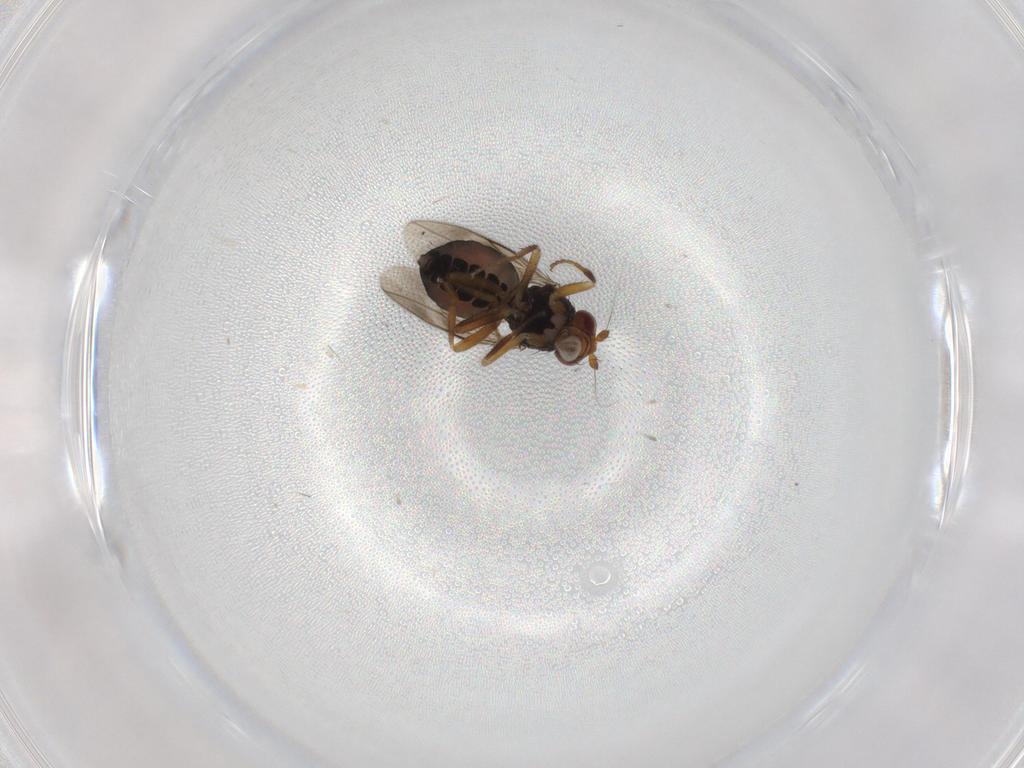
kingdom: Animalia
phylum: Arthropoda
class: Insecta
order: Diptera
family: Sphaeroceridae
